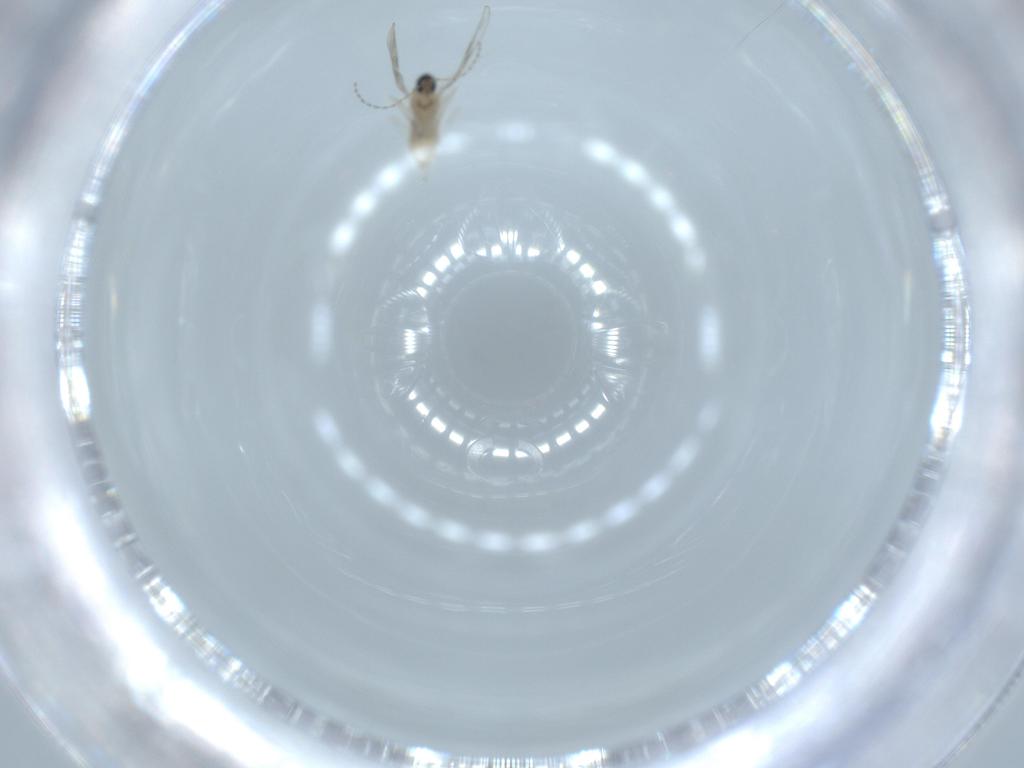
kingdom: Animalia
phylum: Arthropoda
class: Insecta
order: Diptera
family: Cecidomyiidae
